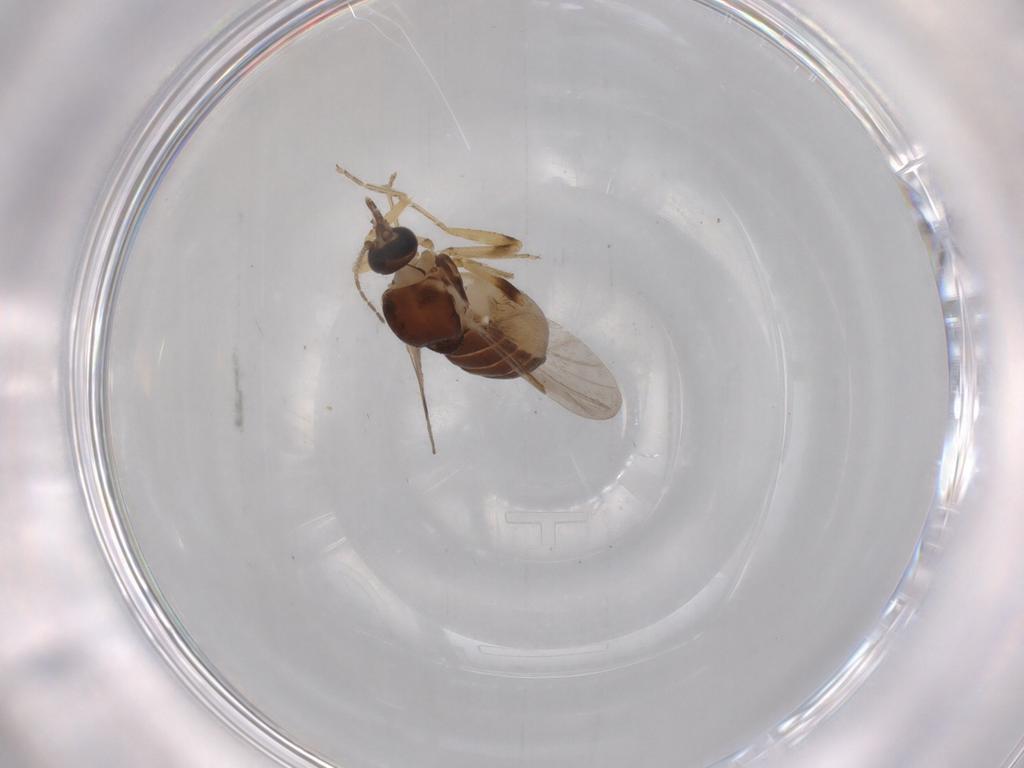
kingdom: Animalia
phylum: Arthropoda
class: Insecta
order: Diptera
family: Ceratopogonidae
